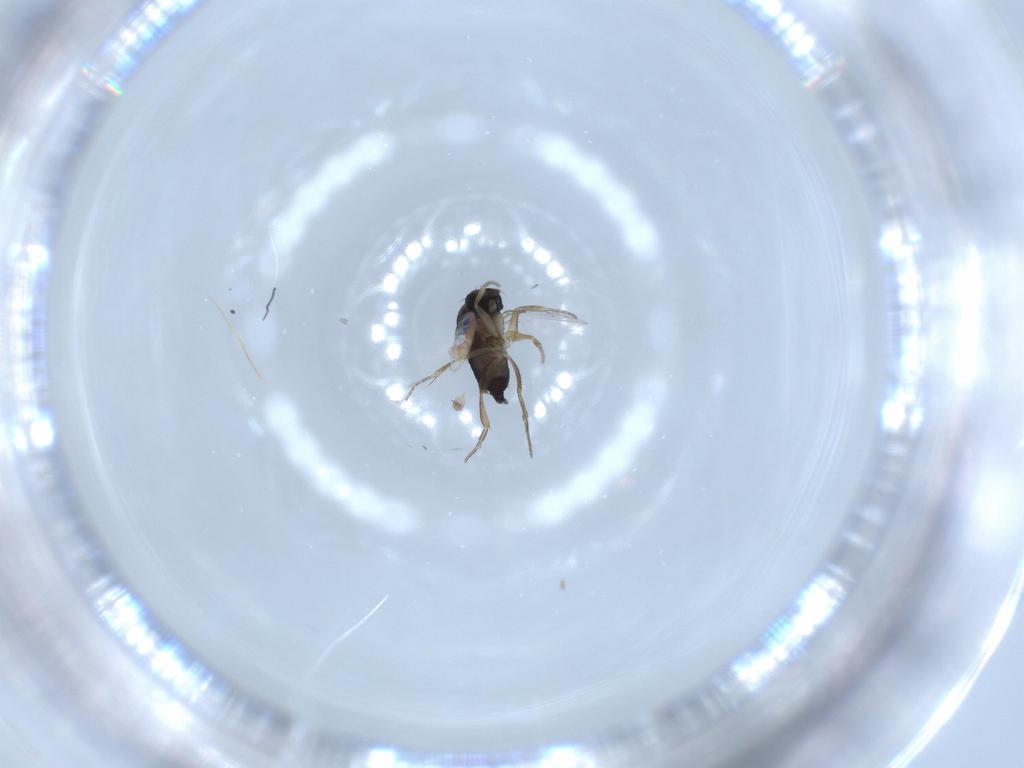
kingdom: Animalia
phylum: Arthropoda
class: Insecta
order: Diptera
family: Phoridae
